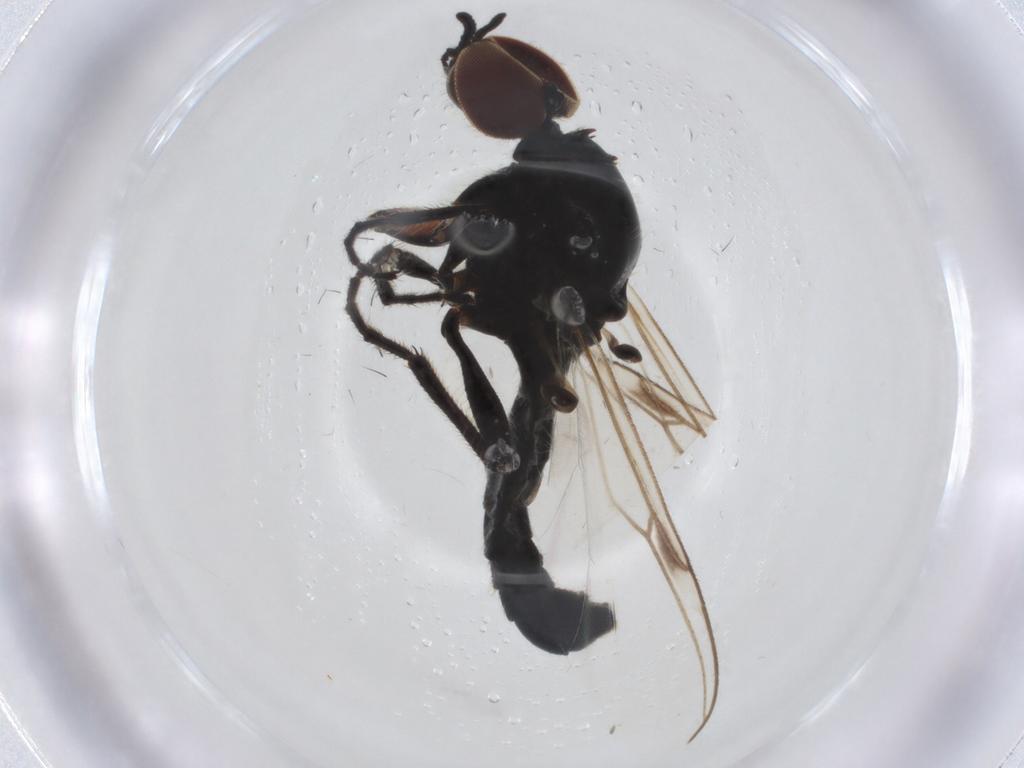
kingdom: Animalia
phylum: Arthropoda
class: Insecta
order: Diptera
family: Bibionidae
